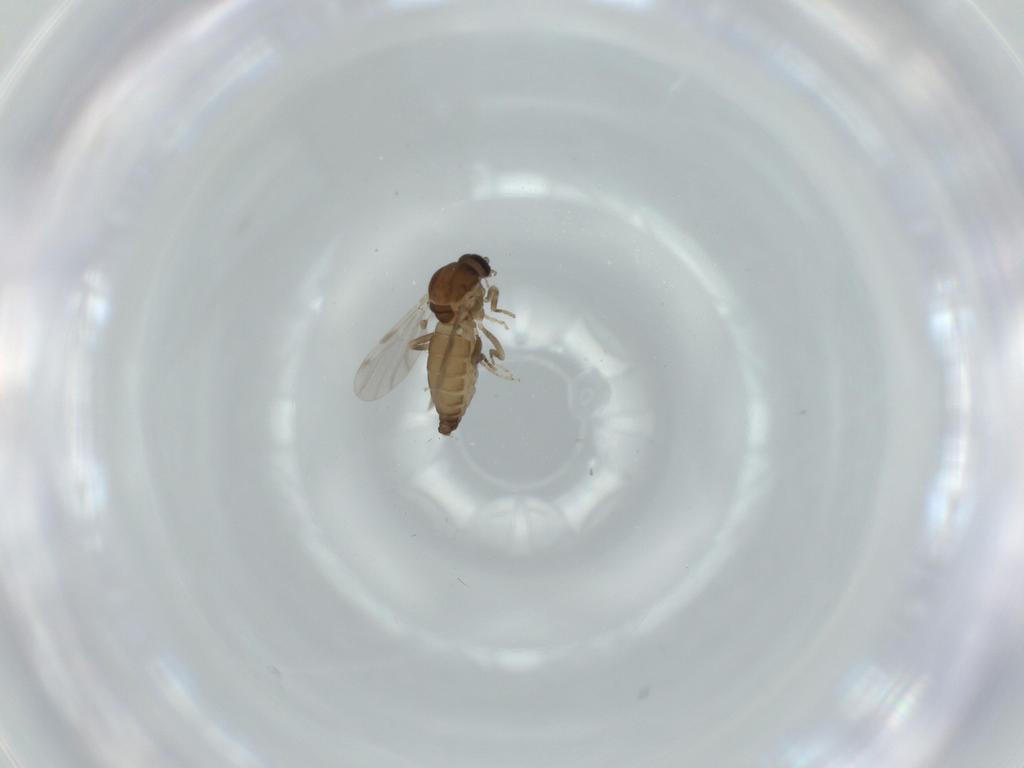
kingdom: Animalia
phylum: Arthropoda
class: Insecta
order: Diptera
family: Ceratopogonidae
